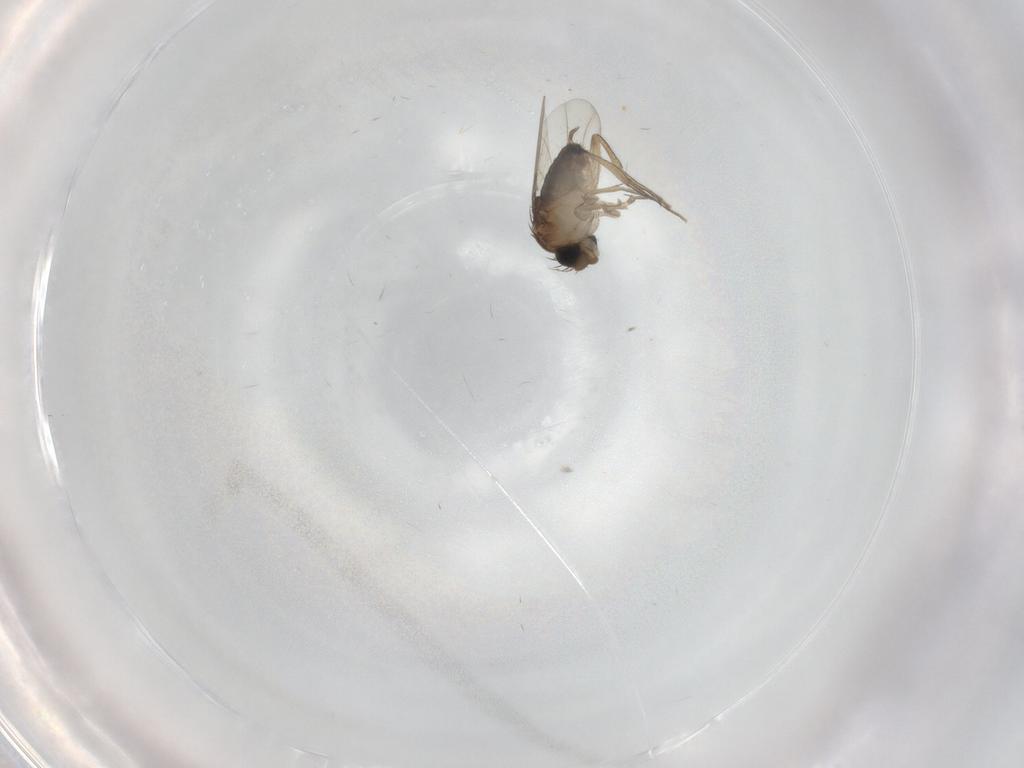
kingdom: Animalia
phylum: Arthropoda
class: Insecta
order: Diptera
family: Phoridae
